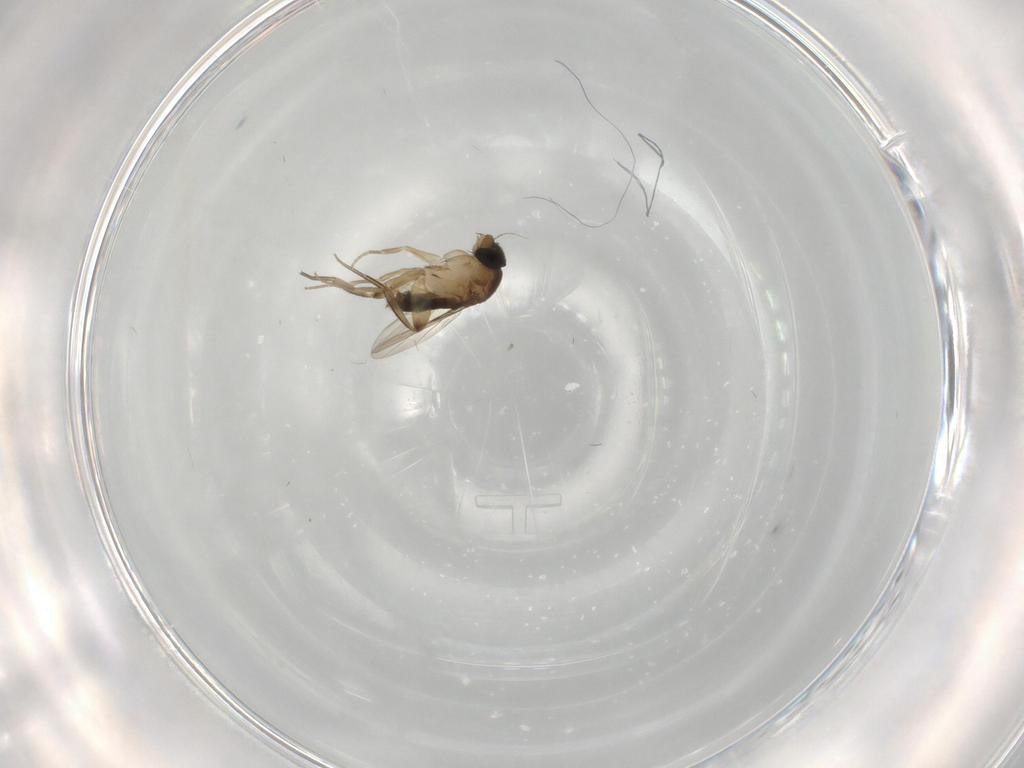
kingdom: Animalia
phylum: Arthropoda
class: Insecta
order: Diptera
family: Phoridae
